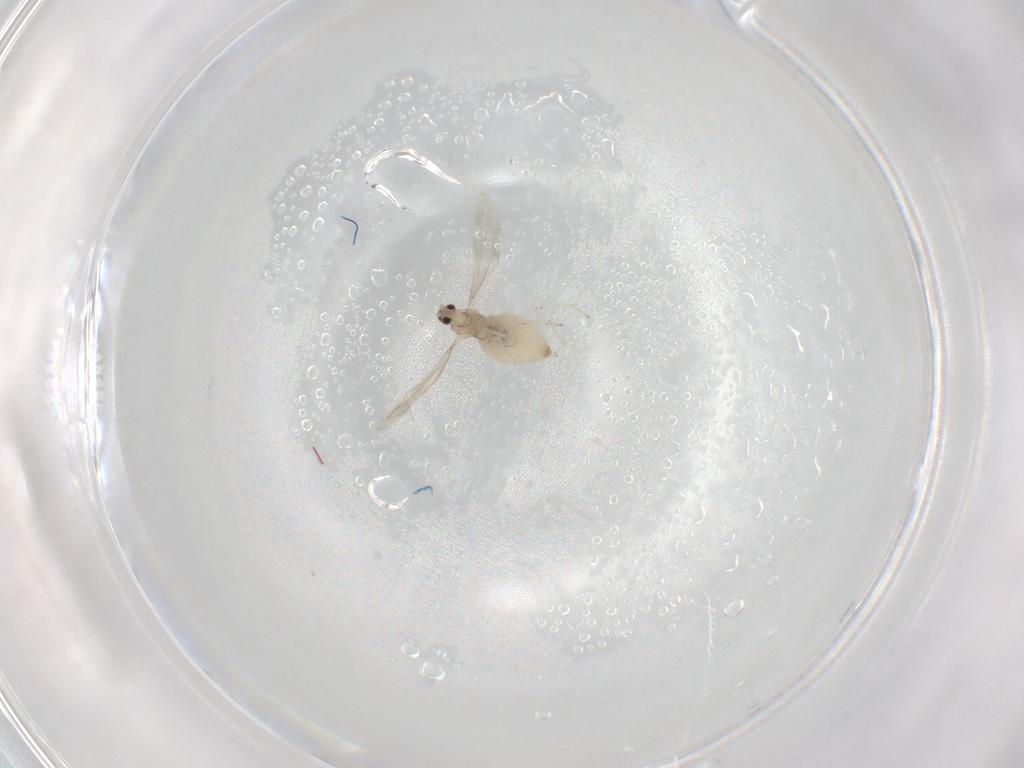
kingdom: Animalia
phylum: Arthropoda
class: Insecta
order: Diptera
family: Cecidomyiidae
